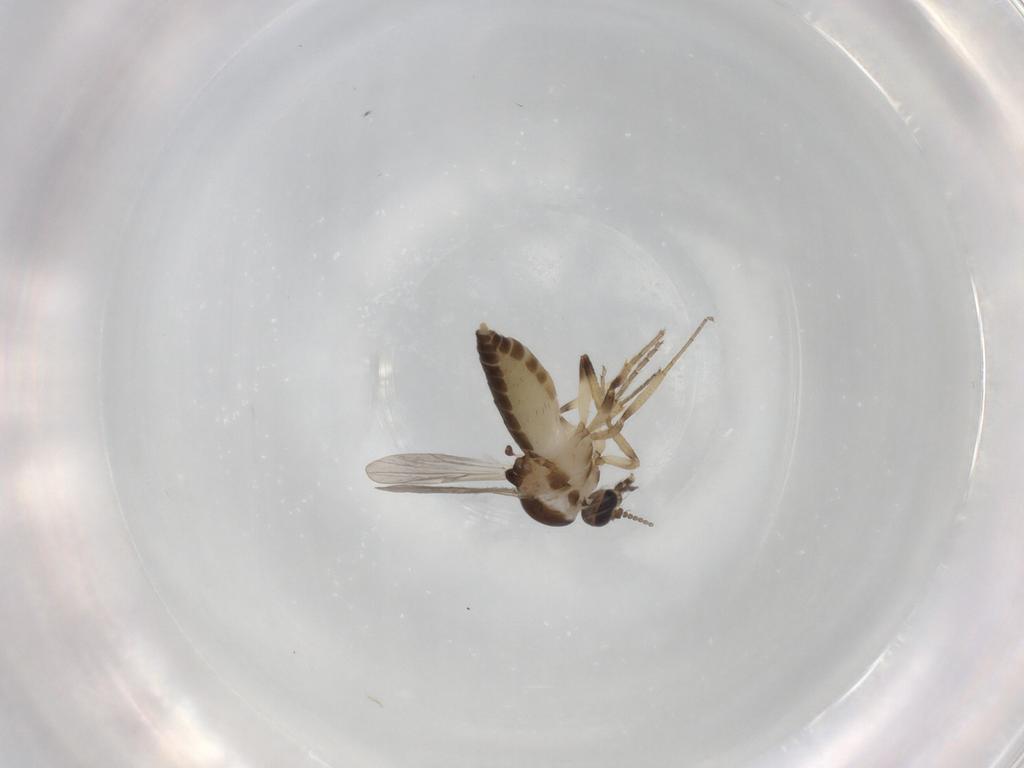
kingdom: Animalia
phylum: Arthropoda
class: Insecta
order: Diptera
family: Ceratopogonidae
